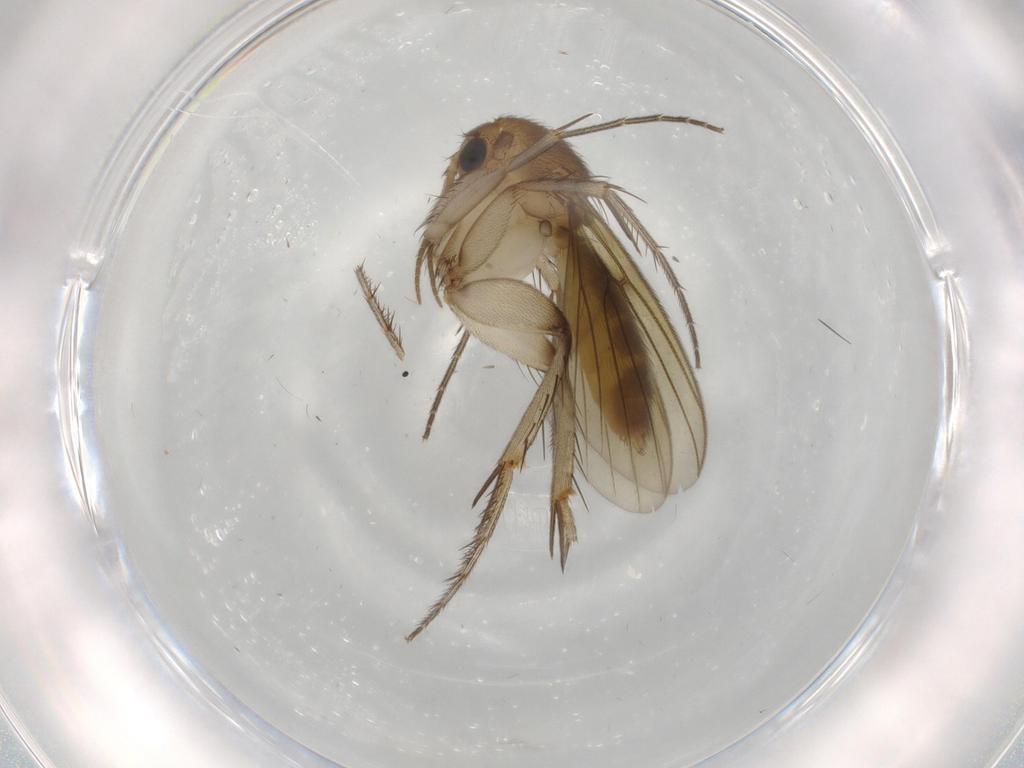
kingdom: Animalia
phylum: Arthropoda
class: Insecta
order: Diptera
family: Mycetophilidae
